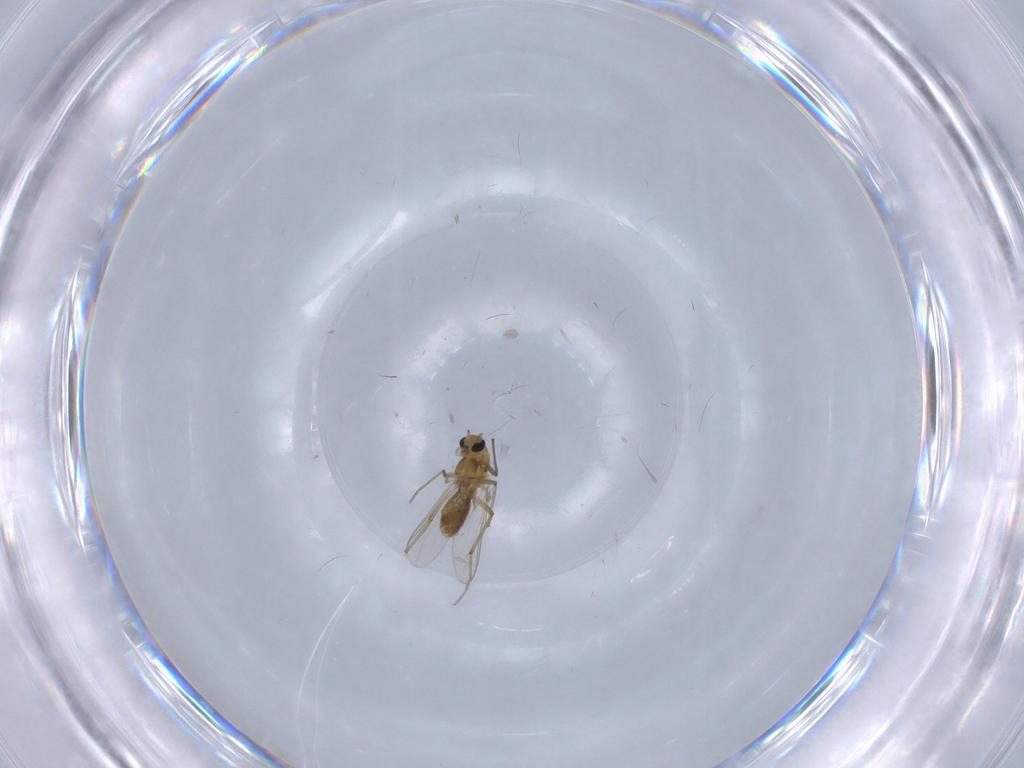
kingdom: Animalia
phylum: Arthropoda
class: Insecta
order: Diptera
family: Chironomidae
